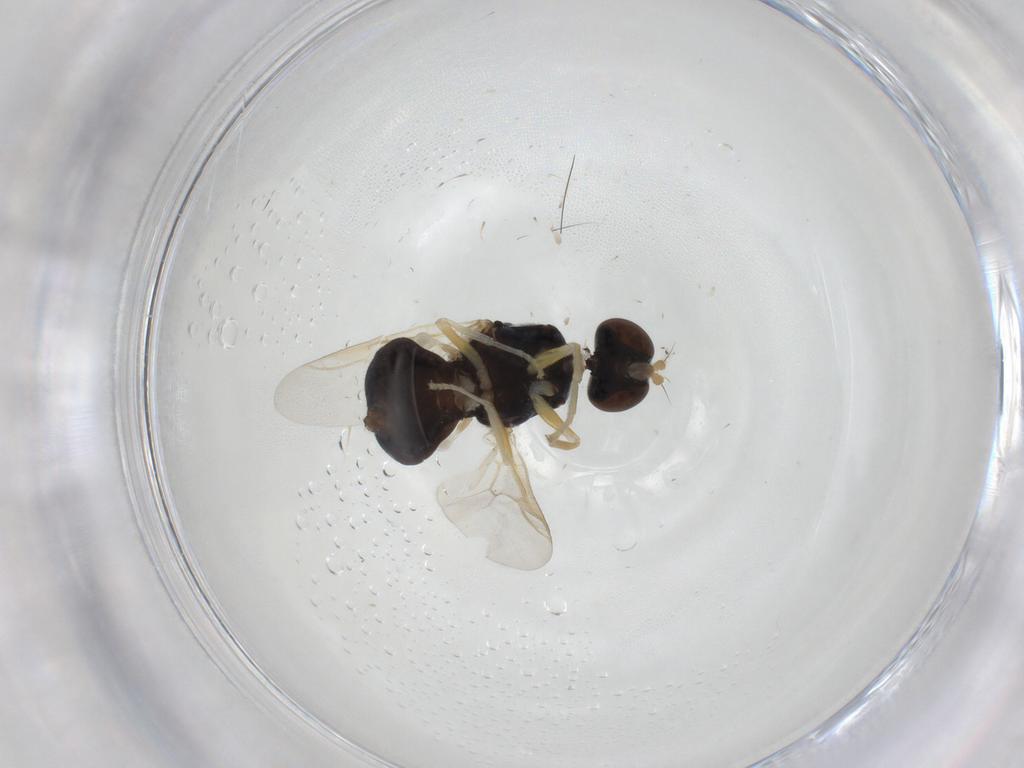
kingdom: Animalia
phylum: Arthropoda
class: Insecta
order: Diptera
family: Stratiomyidae
